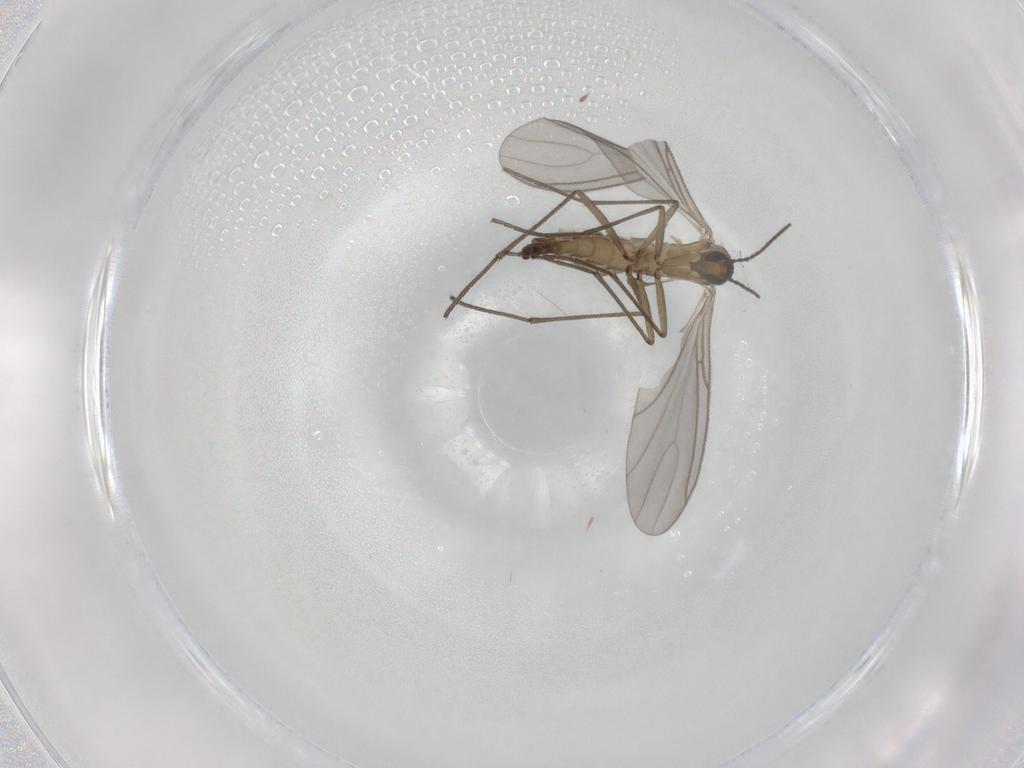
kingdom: Animalia
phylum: Arthropoda
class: Insecta
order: Diptera
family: Sciaridae
